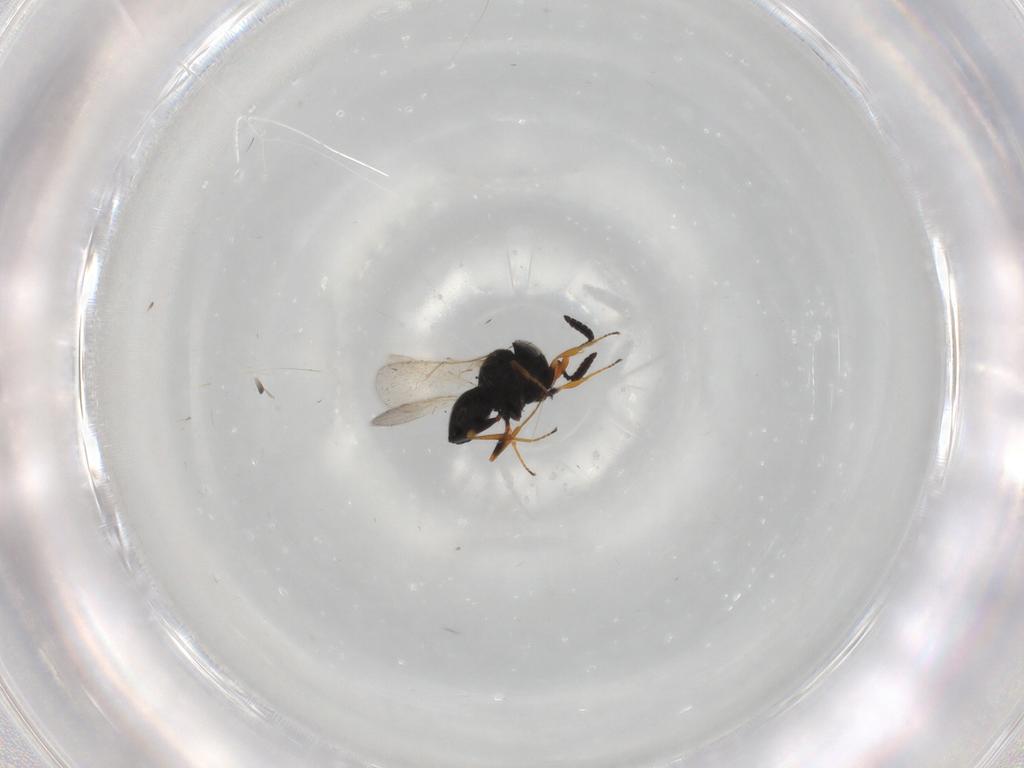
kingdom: Animalia
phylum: Arthropoda
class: Insecta
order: Hymenoptera
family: Scelionidae
